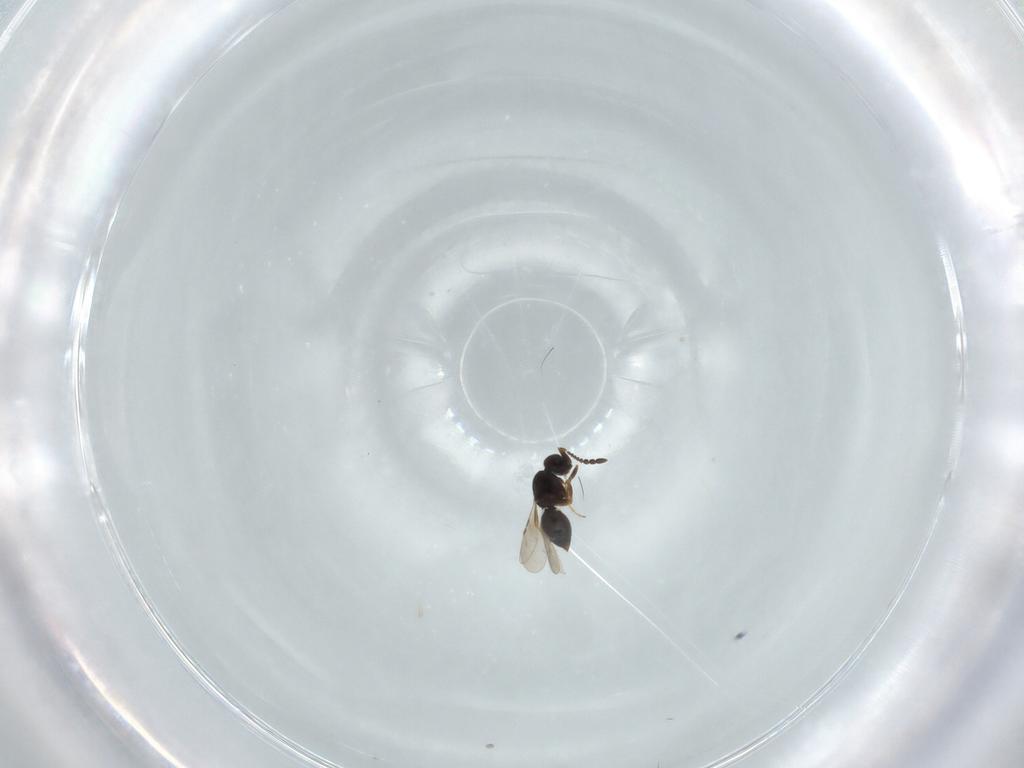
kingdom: Animalia
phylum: Arthropoda
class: Insecta
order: Hymenoptera
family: Ceraphronidae
